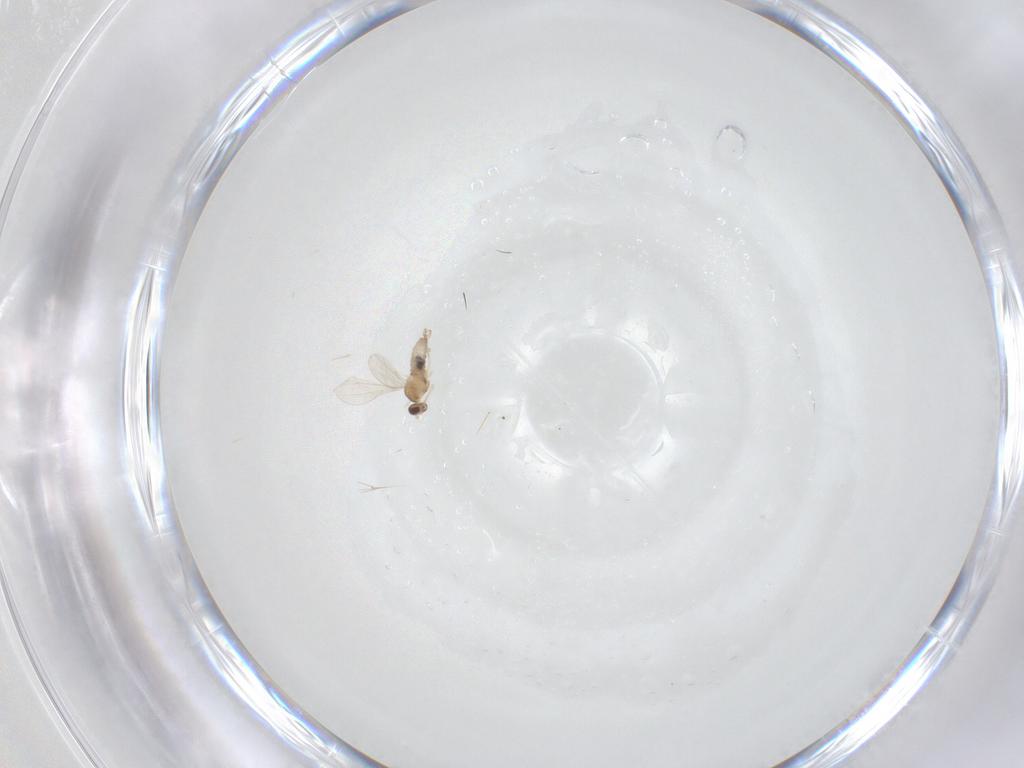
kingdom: Animalia
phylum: Arthropoda
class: Insecta
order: Diptera
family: Cecidomyiidae
